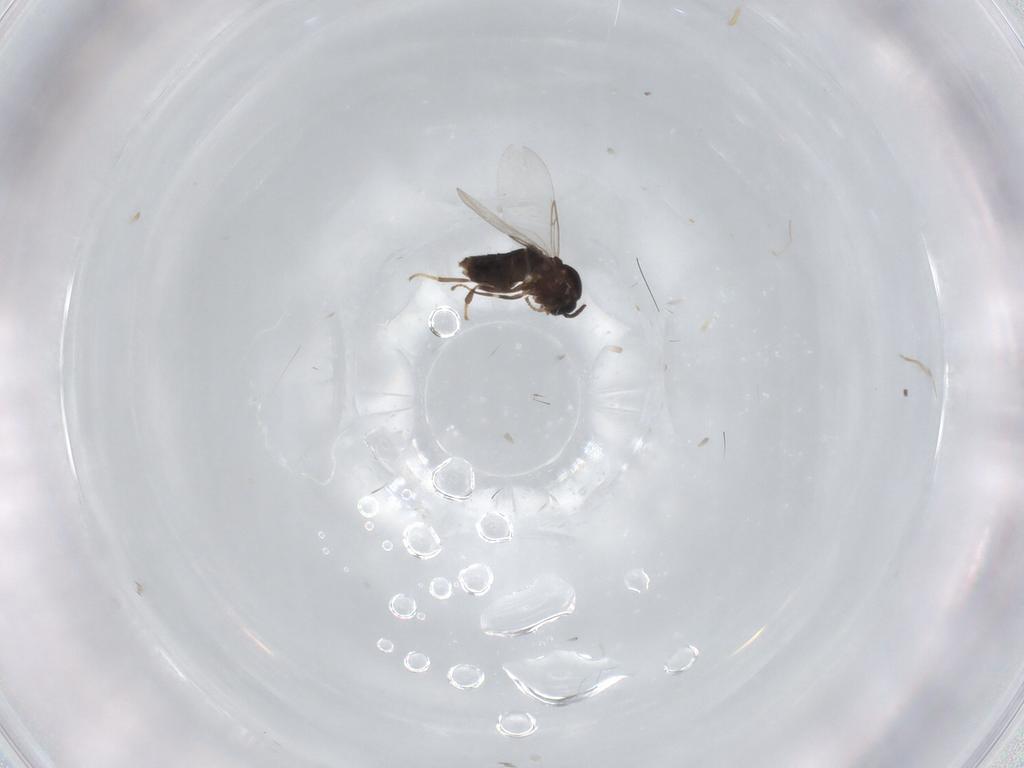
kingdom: Animalia
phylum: Arthropoda
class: Insecta
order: Diptera
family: Scatopsidae
